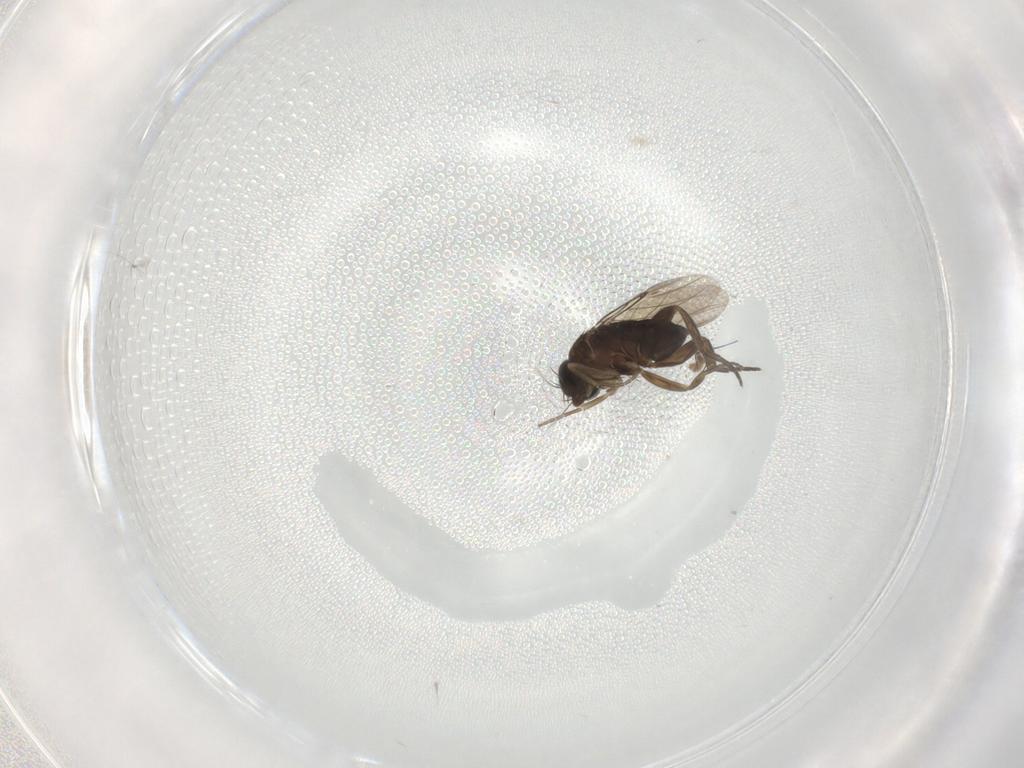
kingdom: Animalia
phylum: Arthropoda
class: Insecta
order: Diptera
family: Phoridae
